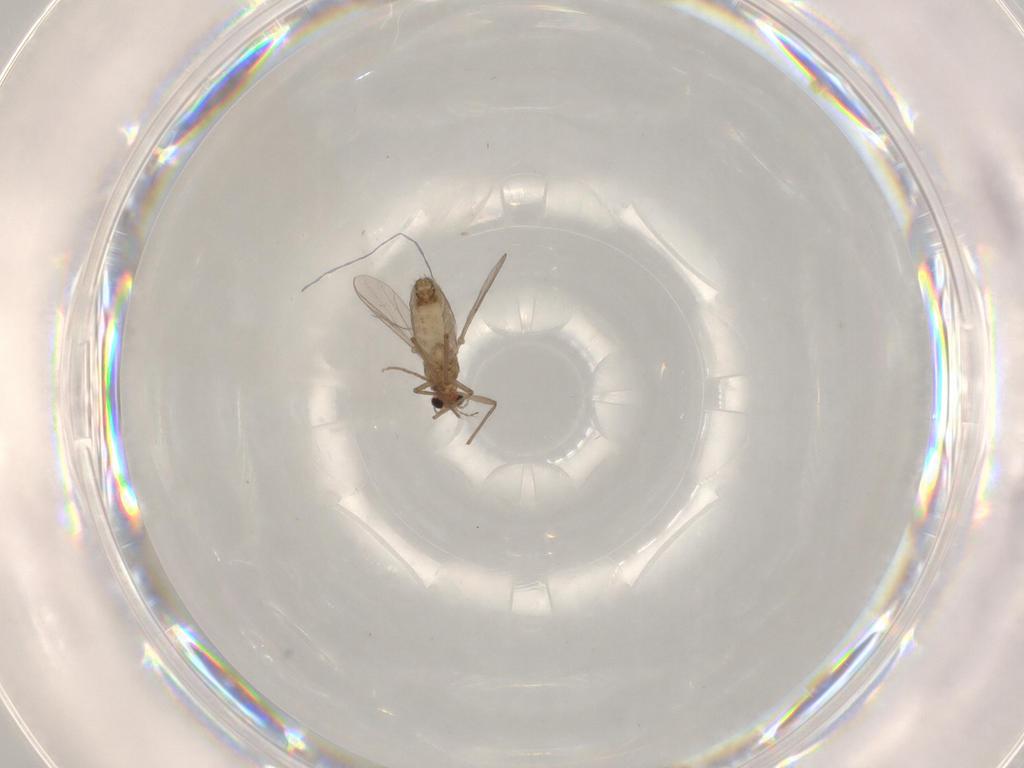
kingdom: Animalia
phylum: Arthropoda
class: Insecta
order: Diptera
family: Chironomidae
